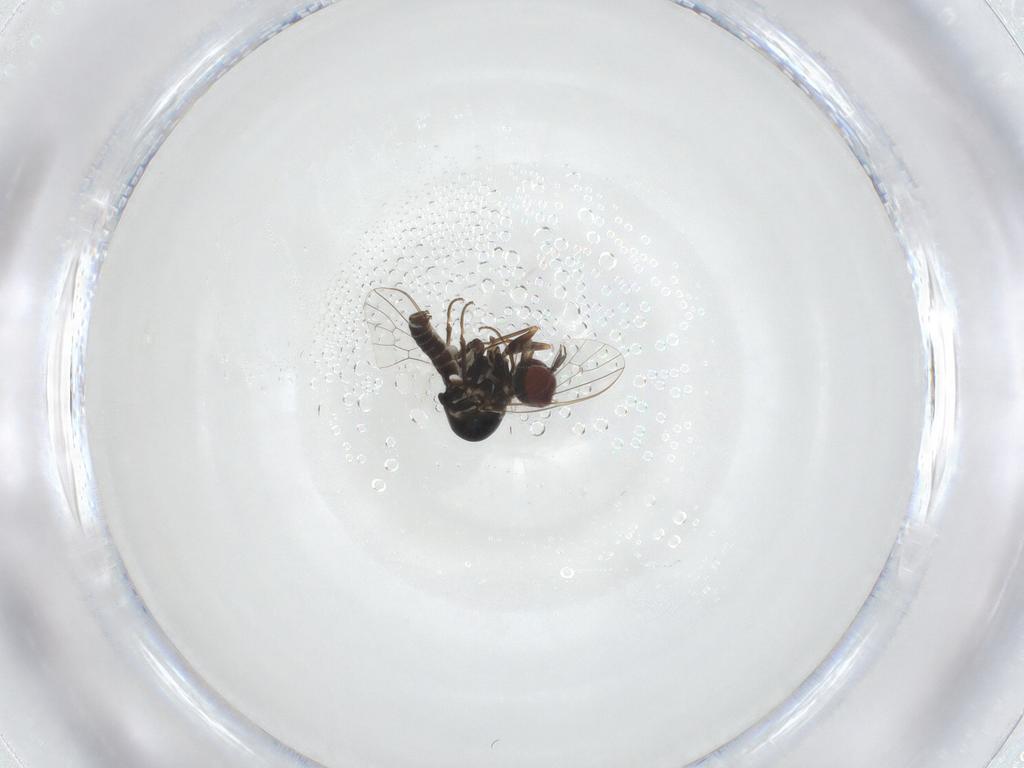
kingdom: Animalia
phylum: Arthropoda
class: Insecta
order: Diptera
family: Mythicomyiidae
